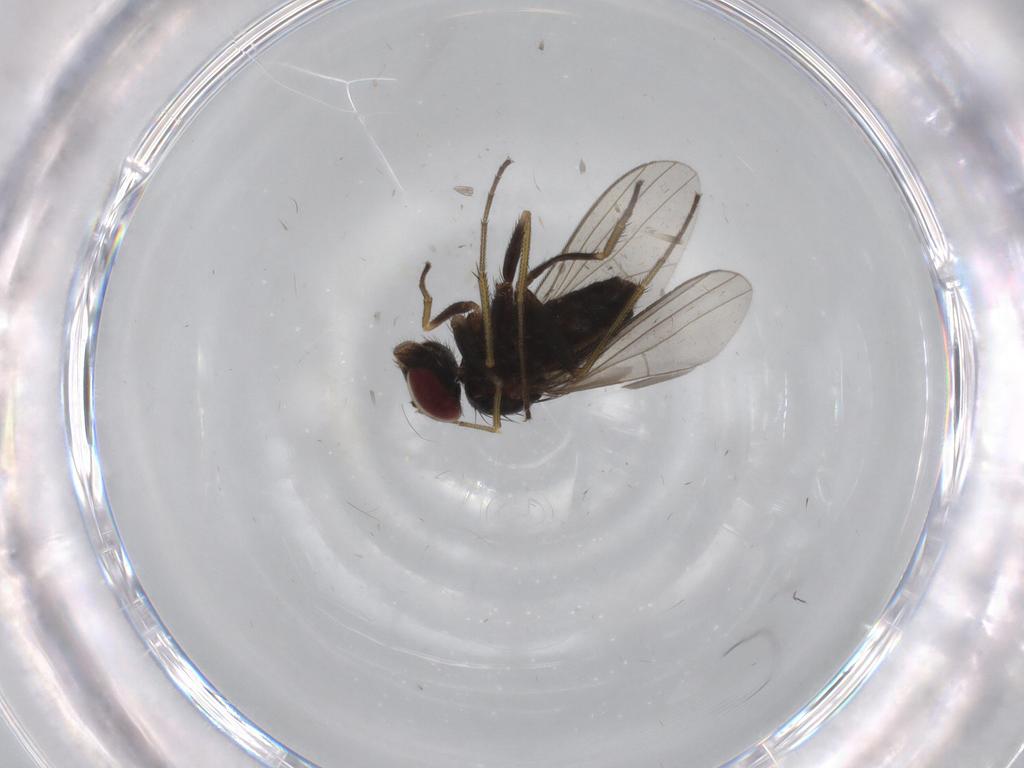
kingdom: Animalia
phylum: Arthropoda
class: Insecta
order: Diptera
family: Dolichopodidae
